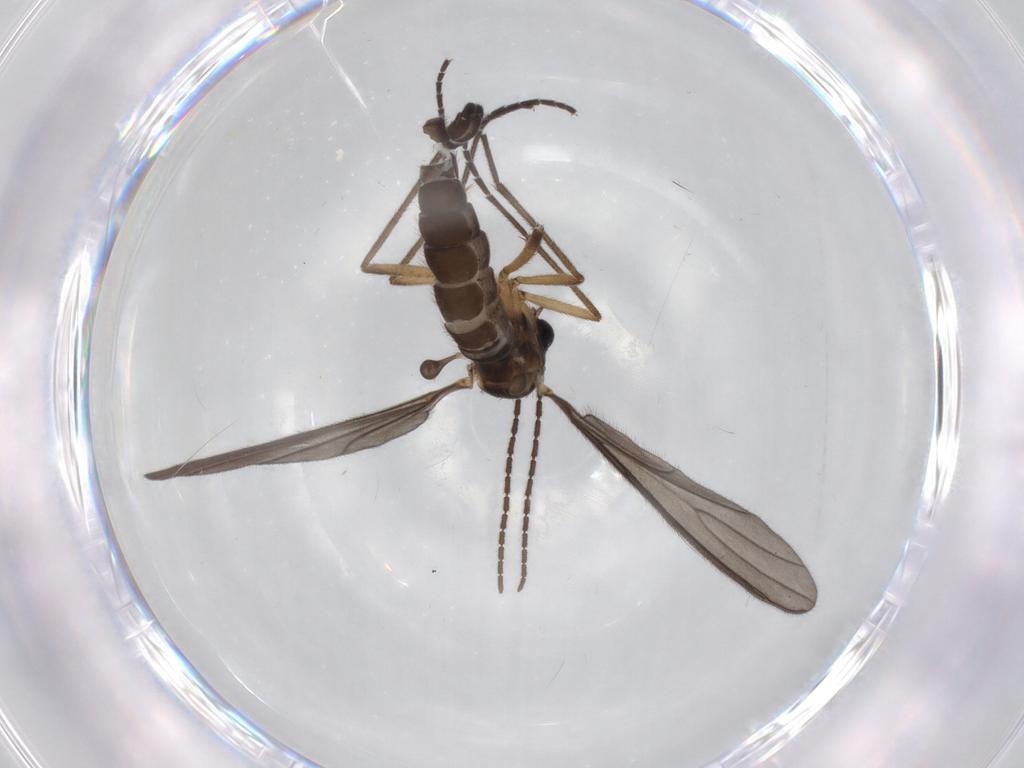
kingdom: Animalia
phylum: Arthropoda
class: Insecta
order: Diptera
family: Sciaridae
